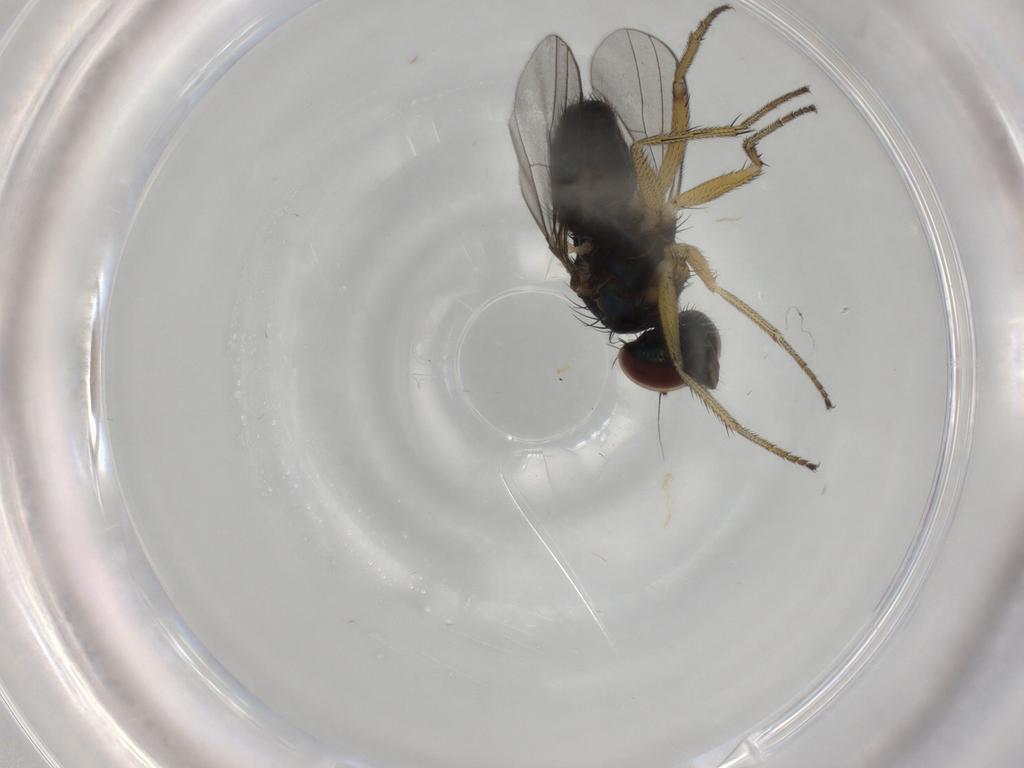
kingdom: Animalia
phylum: Arthropoda
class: Insecta
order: Diptera
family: Dolichopodidae
